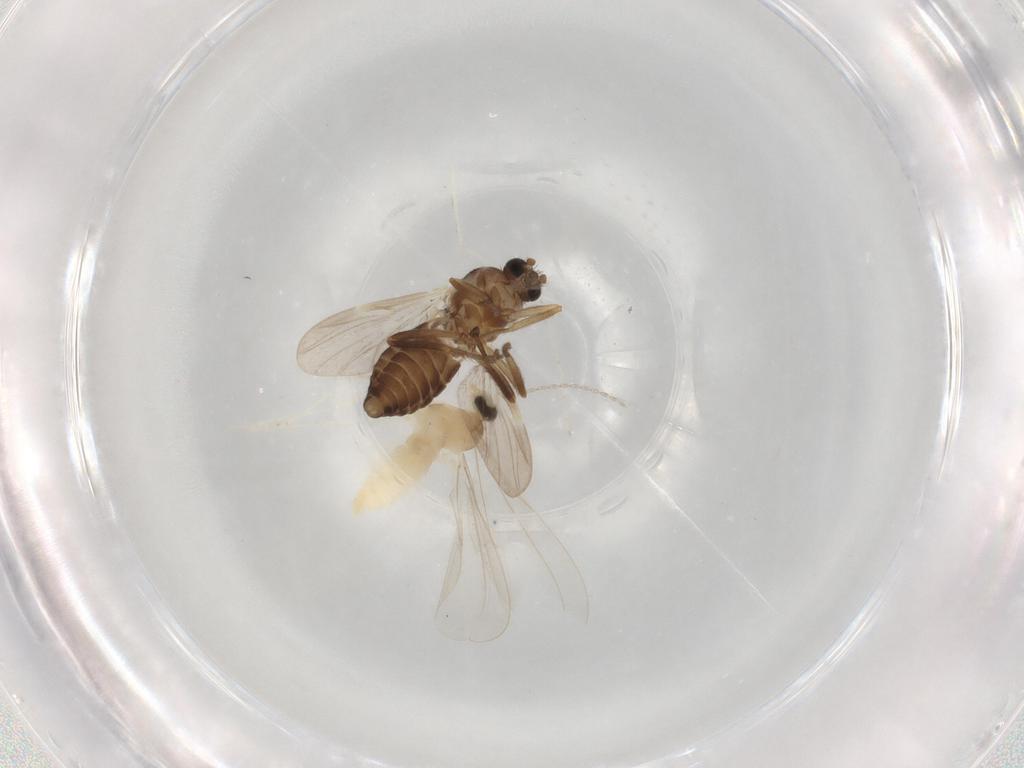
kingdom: Animalia
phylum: Arthropoda
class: Insecta
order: Diptera
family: Cecidomyiidae
